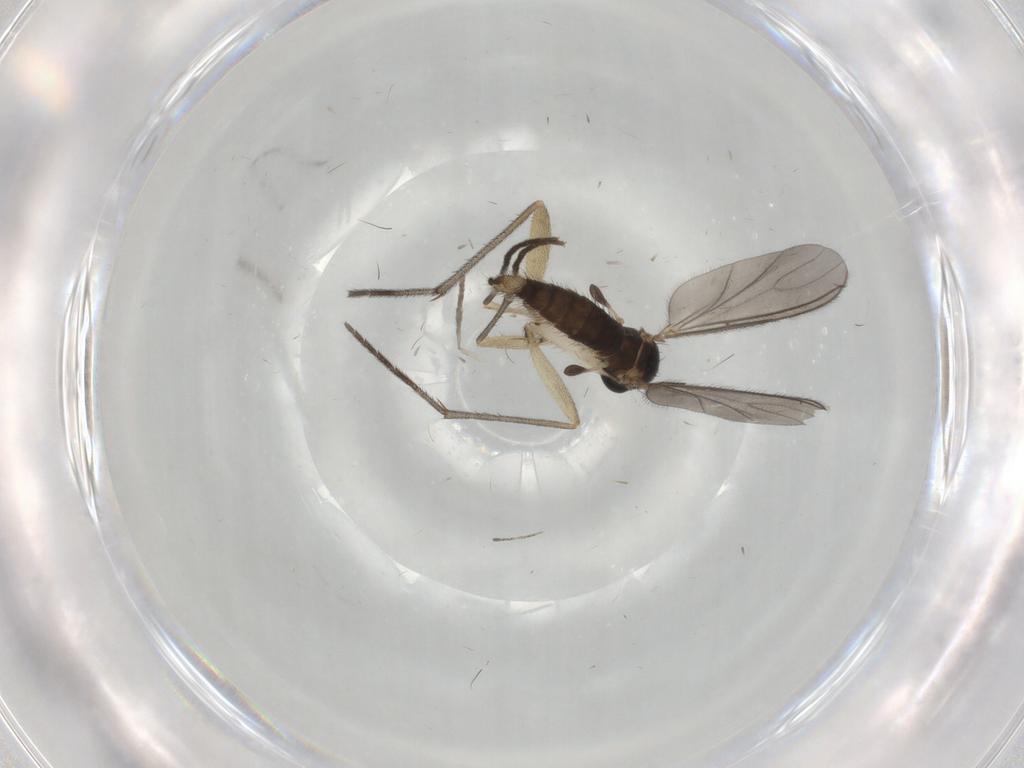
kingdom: Animalia
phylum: Arthropoda
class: Insecta
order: Diptera
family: Sciaridae
